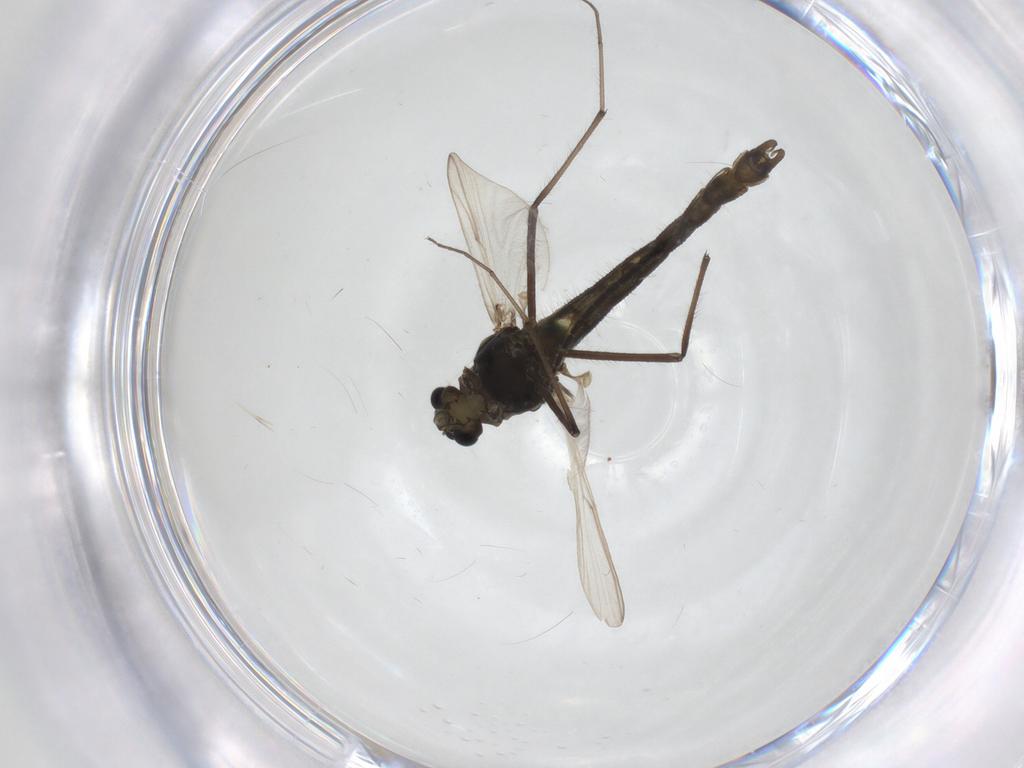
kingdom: Animalia
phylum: Arthropoda
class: Insecta
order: Diptera
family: Chironomidae
